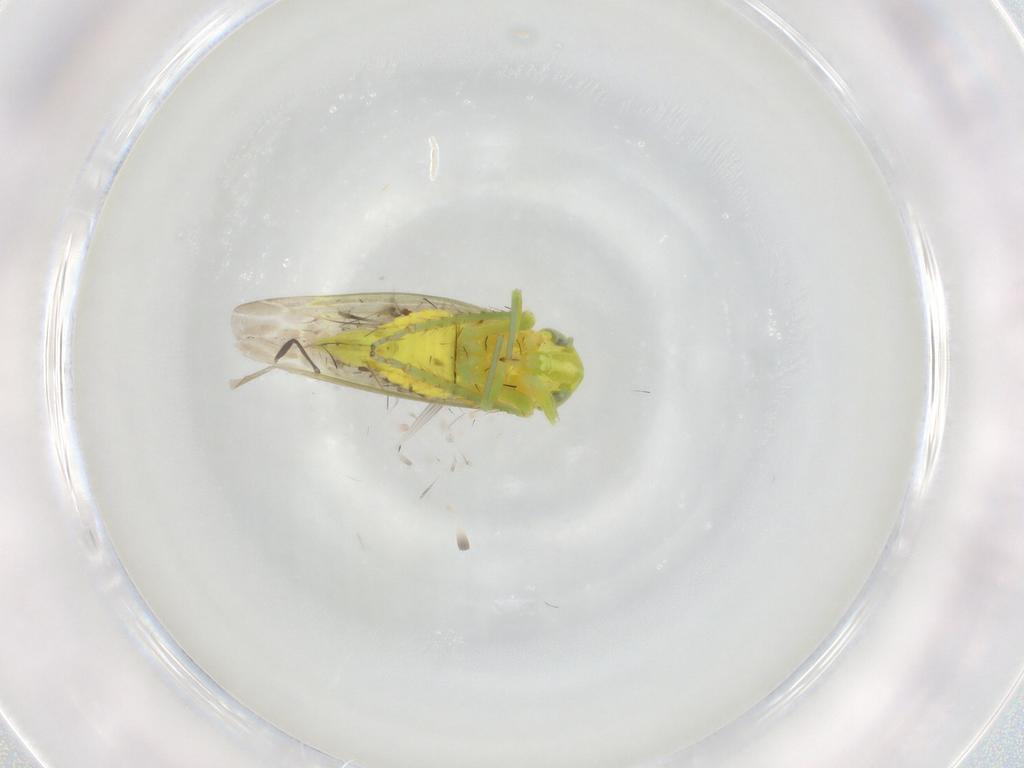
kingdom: Animalia
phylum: Arthropoda
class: Insecta
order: Hemiptera
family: Cicadellidae
